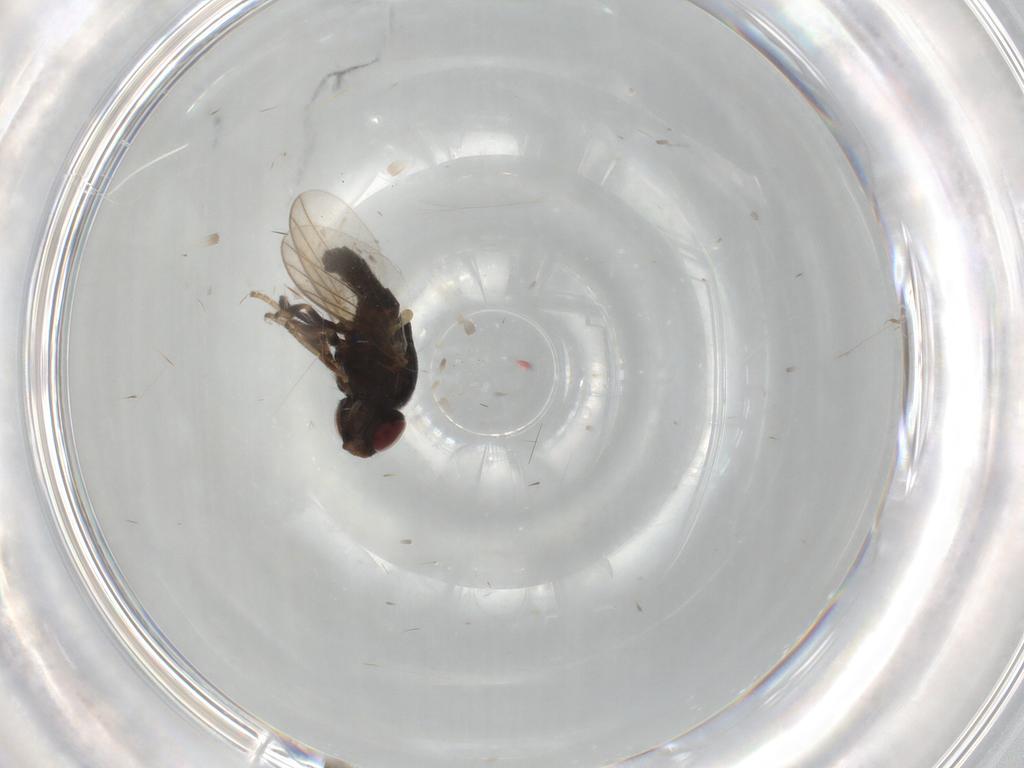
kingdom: Animalia
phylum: Arthropoda
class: Insecta
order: Diptera
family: Chloropidae
